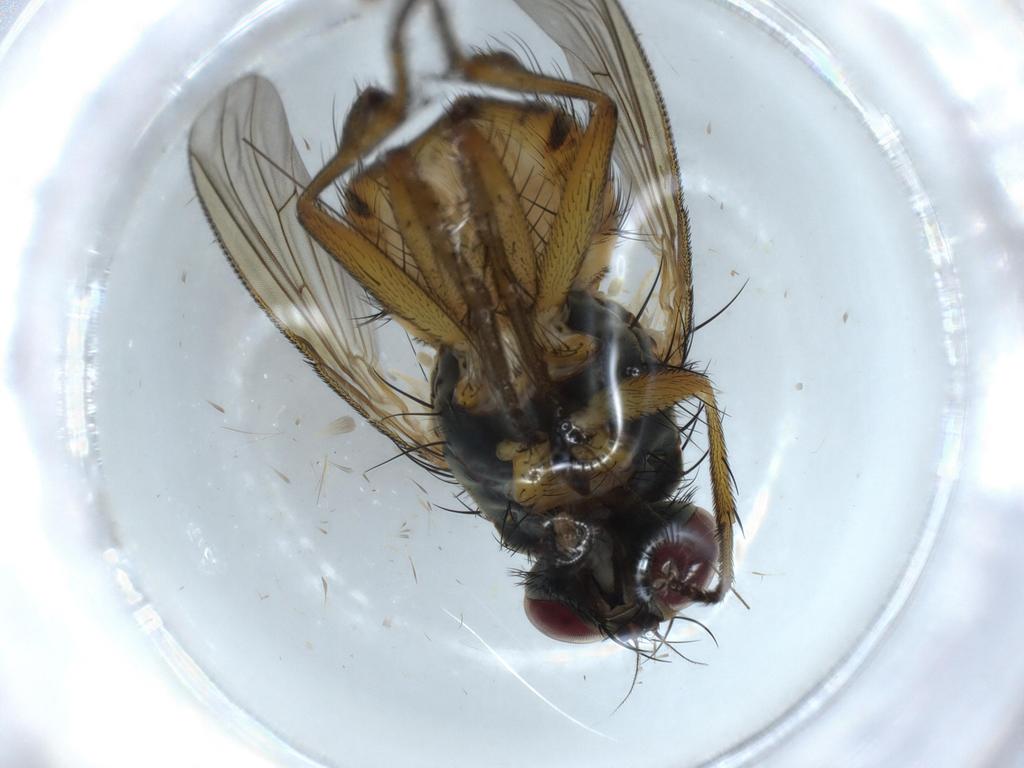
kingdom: Animalia
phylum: Arthropoda
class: Insecta
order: Diptera
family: Muscidae
